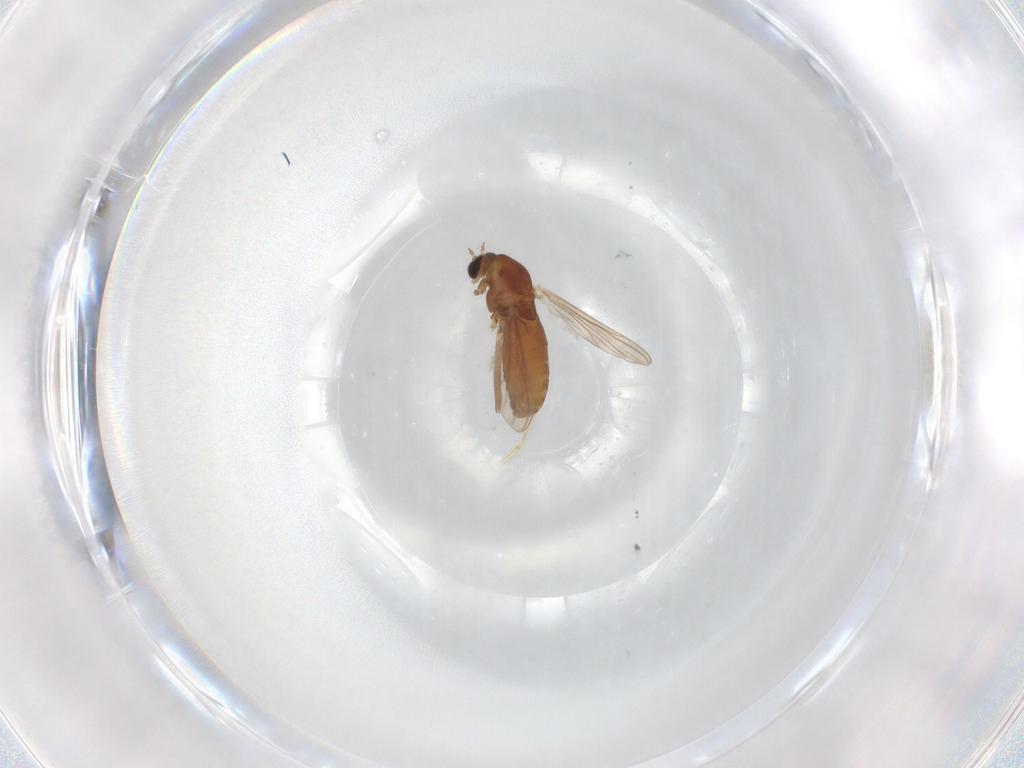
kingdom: Animalia
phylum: Arthropoda
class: Insecta
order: Diptera
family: Chironomidae
